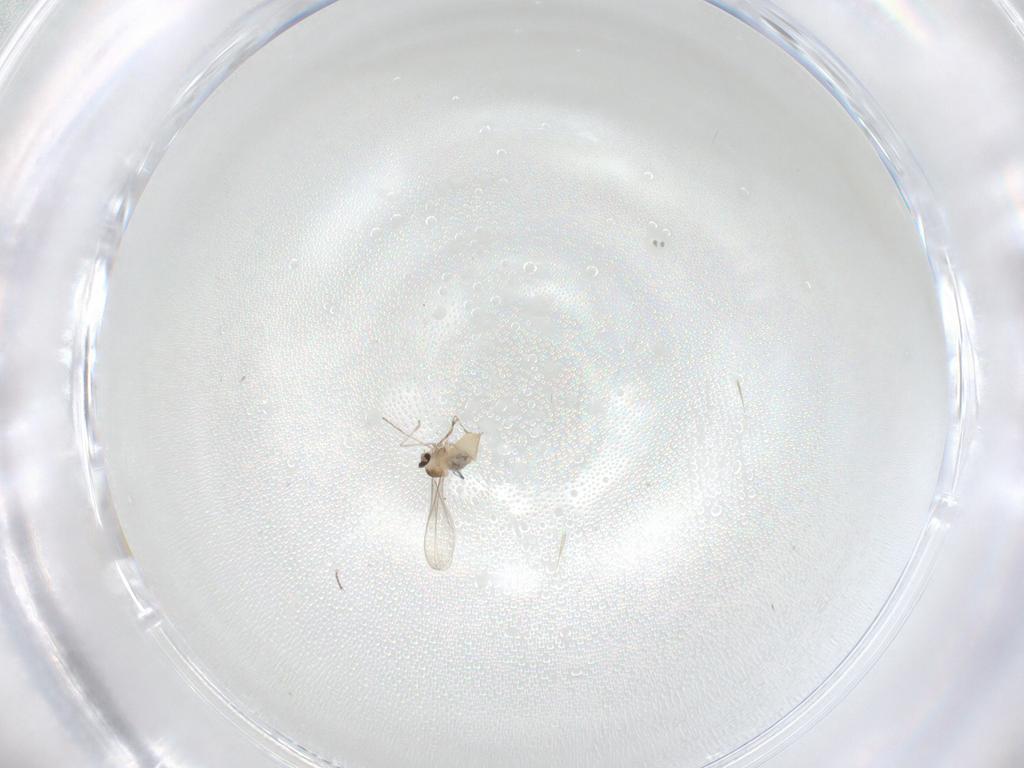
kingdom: Animalia
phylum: Arthropoda
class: Insecta
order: Diptera
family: Cecidomyiidae
